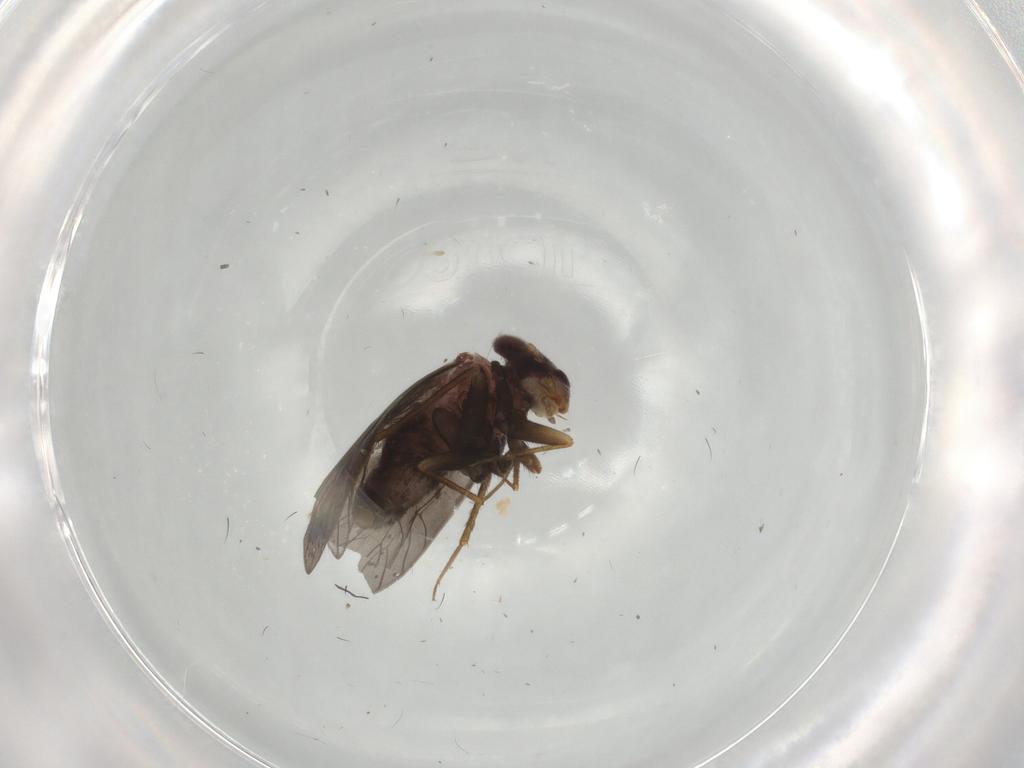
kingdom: Animalia
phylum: Arthropoda
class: Insecta
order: Psocodea
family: Lepidopsocidae
